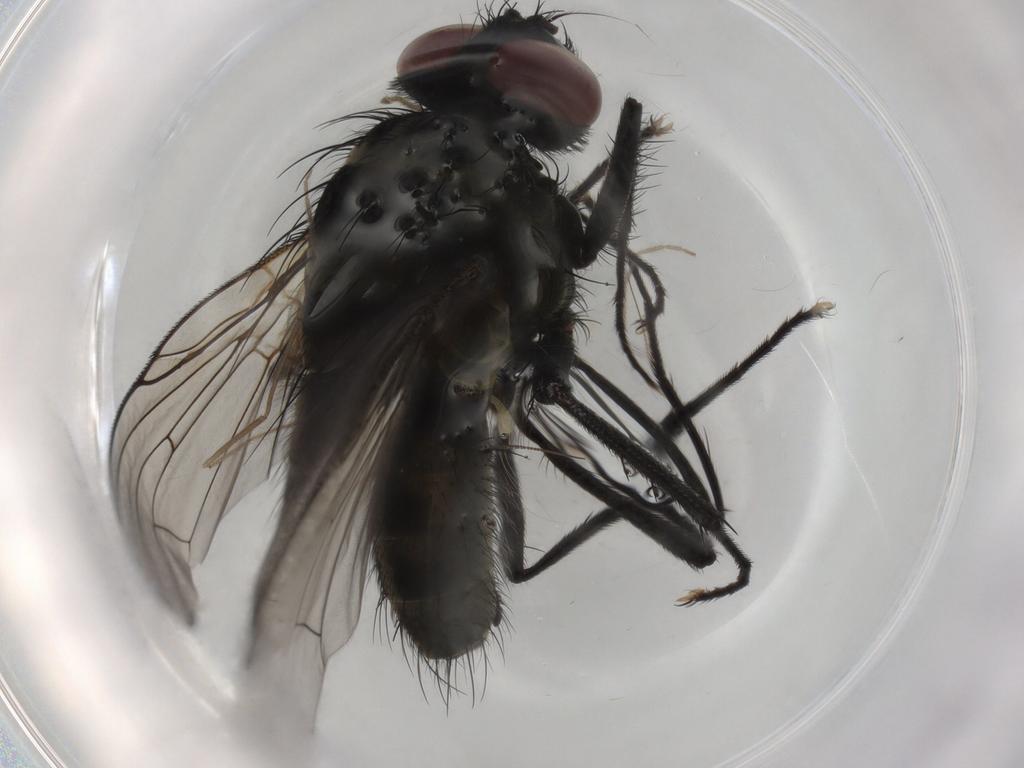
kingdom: Animalia
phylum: Arthropoda
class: Insecta
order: Diptera
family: Muscidae
